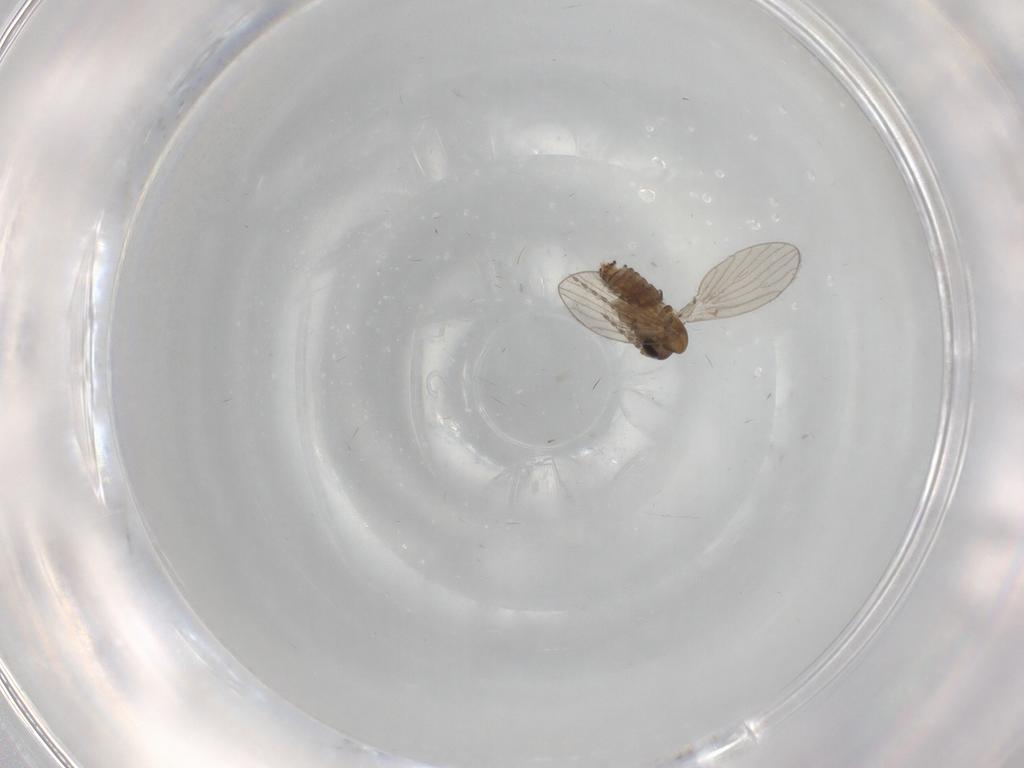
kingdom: Animalia
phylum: Arthropoda
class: Insecta
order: Diptera
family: Psychodidae
